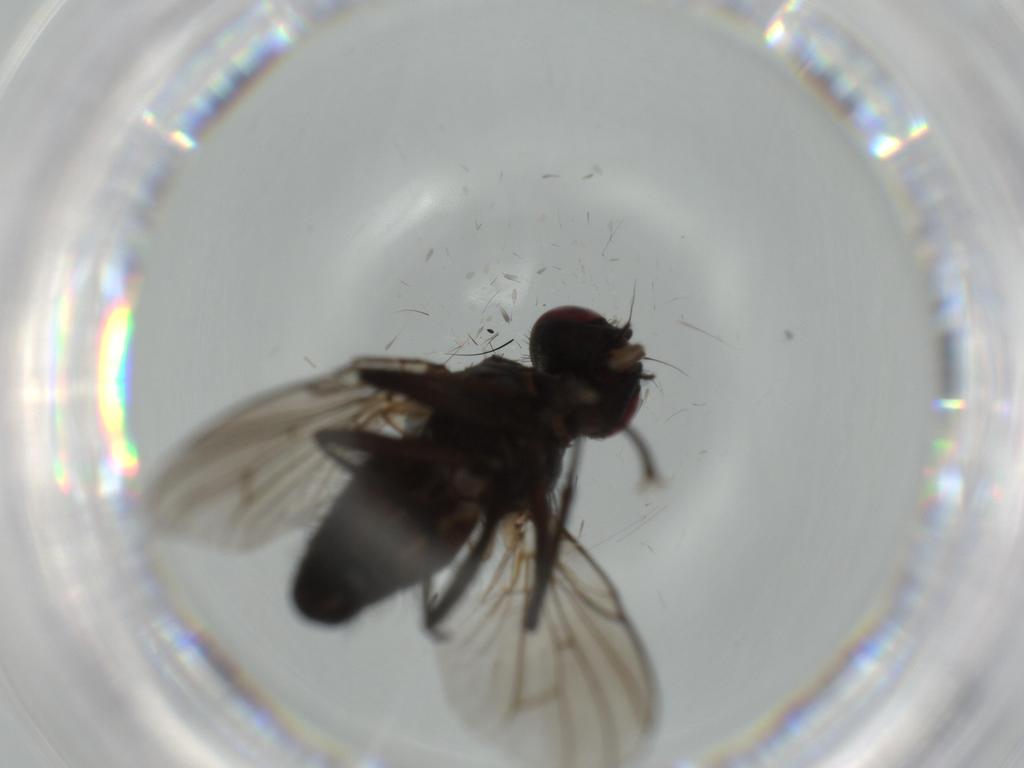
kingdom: Animalia
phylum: Arthropoda
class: Insecta
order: Diptera
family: Muscidae
